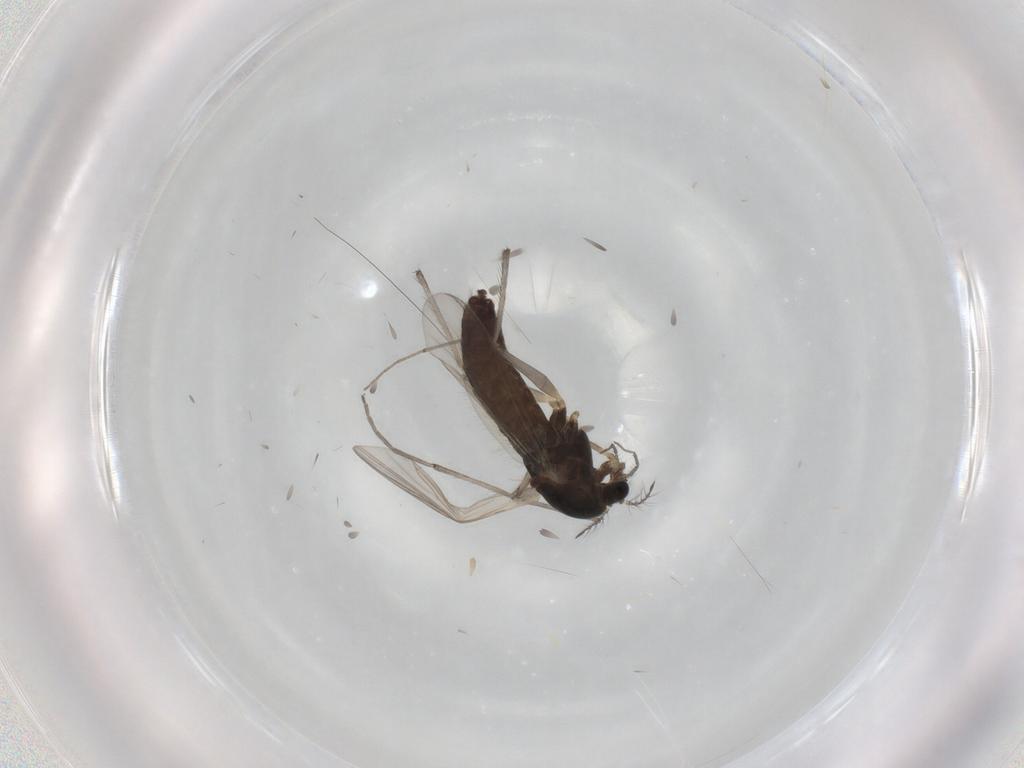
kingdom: Animalia
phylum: Arthropoda
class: Insecta
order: Diptera
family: Chironomidae
